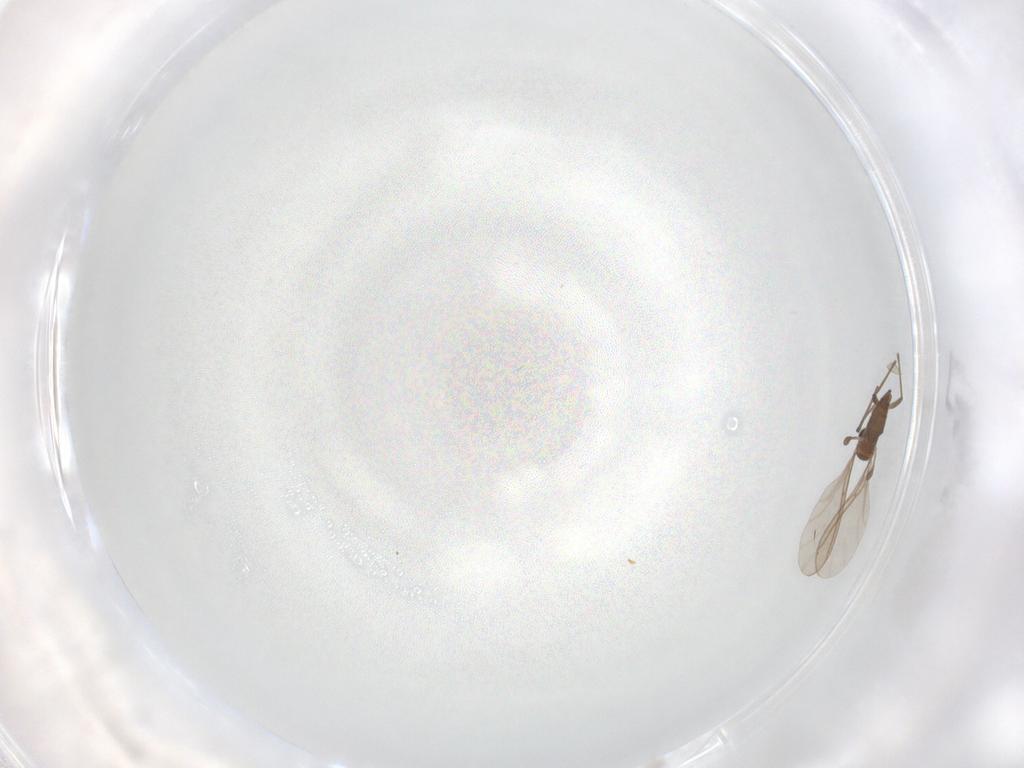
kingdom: Animalia
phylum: Arthropoda
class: Insecta
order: Diptera
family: Sciaridae
